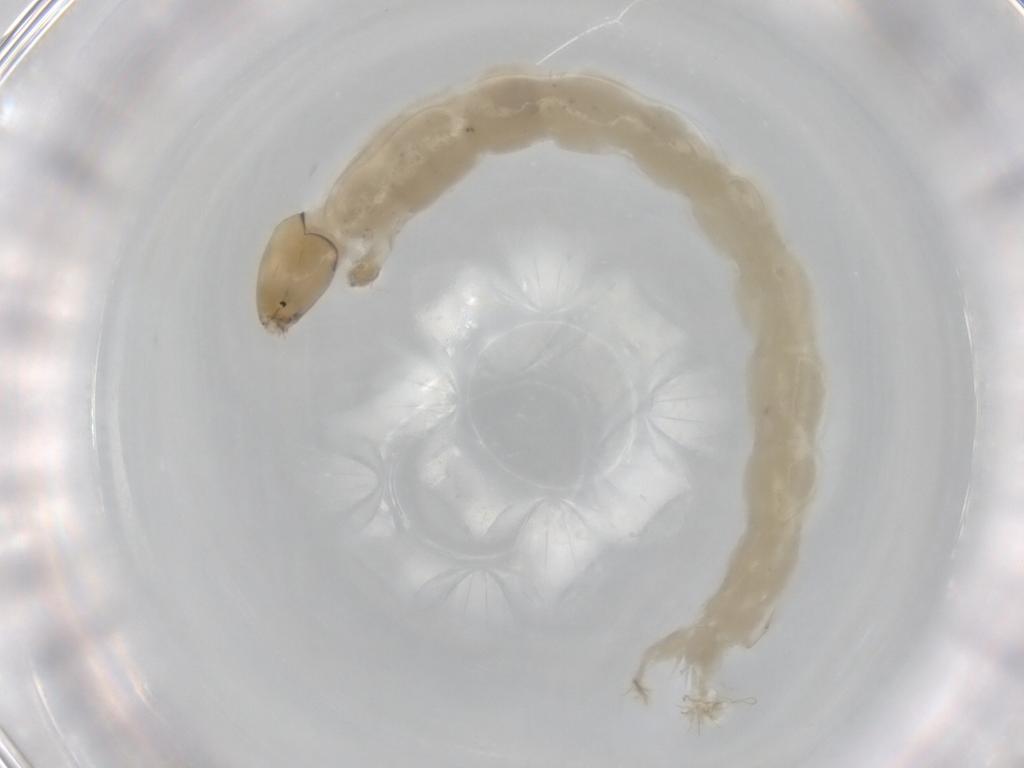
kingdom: Animalia
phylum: Arthropoda
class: Insecta
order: Diptera
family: Chironomidae
